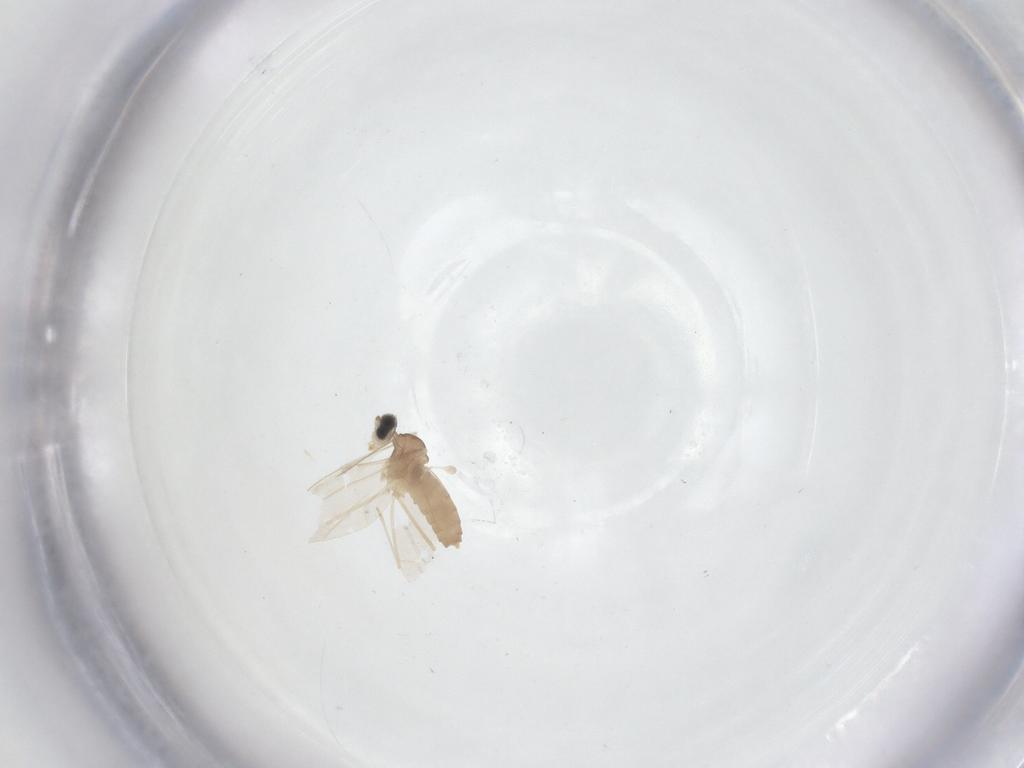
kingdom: Animalia
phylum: Arthropoda
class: Insecta
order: Diptera
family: Cecidomyiidae
